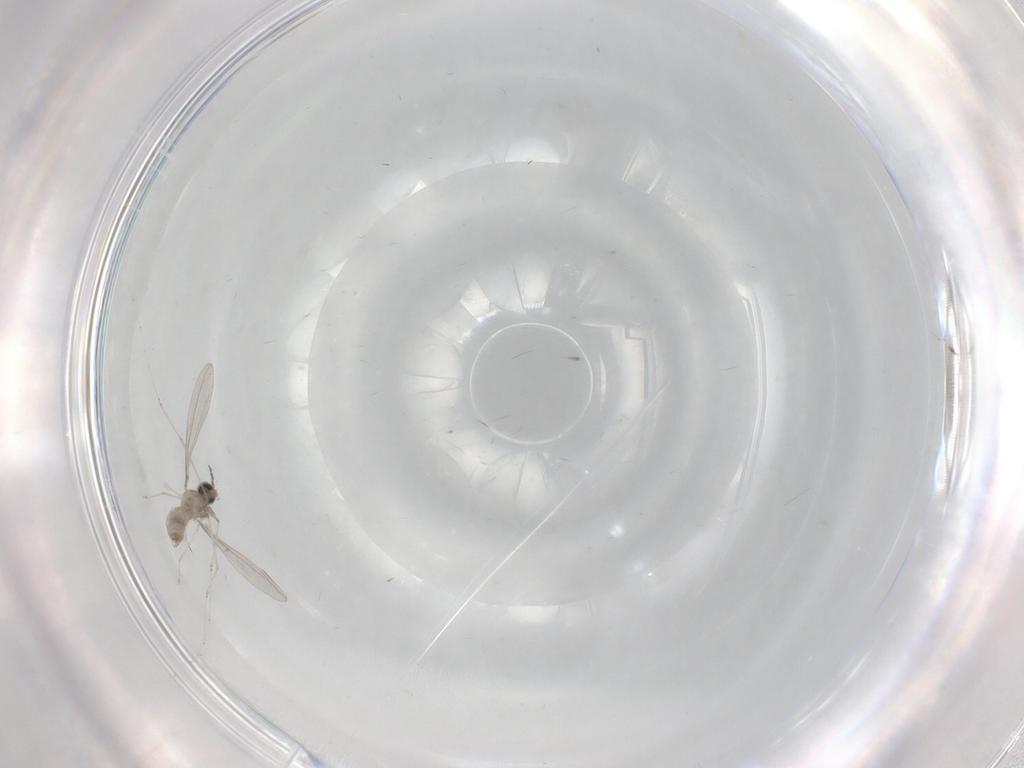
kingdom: Animalia
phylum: Arthropoda
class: Insecta
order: Diptera
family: Cecidomyiidae
